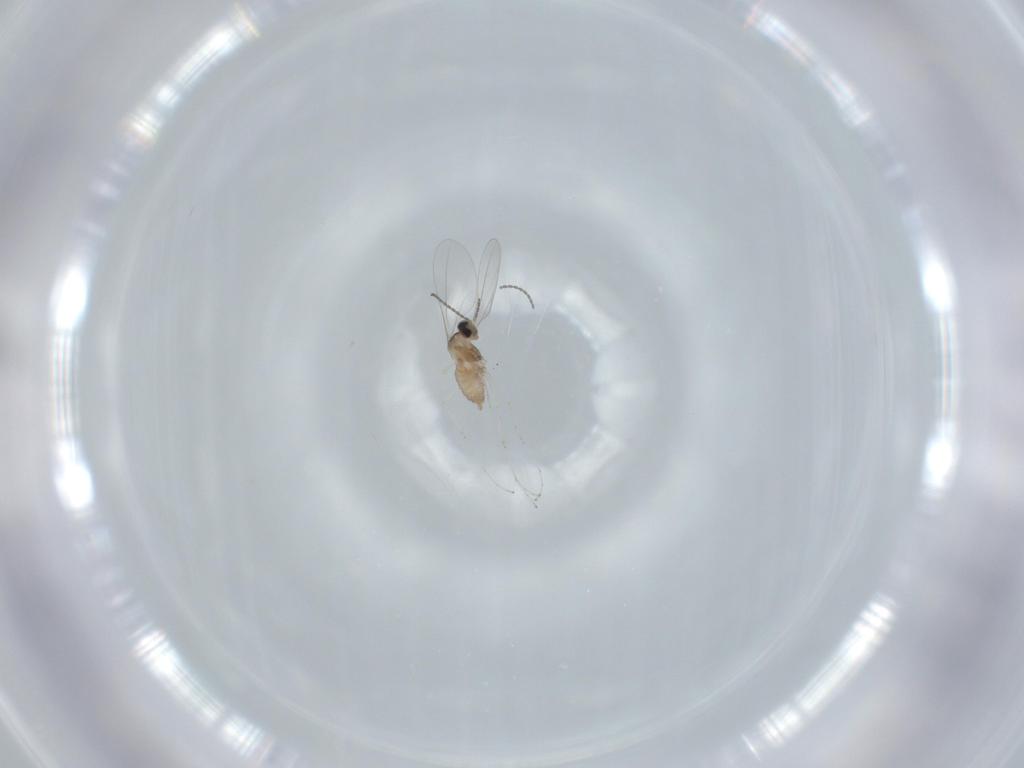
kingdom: Animalia
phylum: Arthropoda
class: Insecta
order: Diptera
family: Cecidomyiidae
